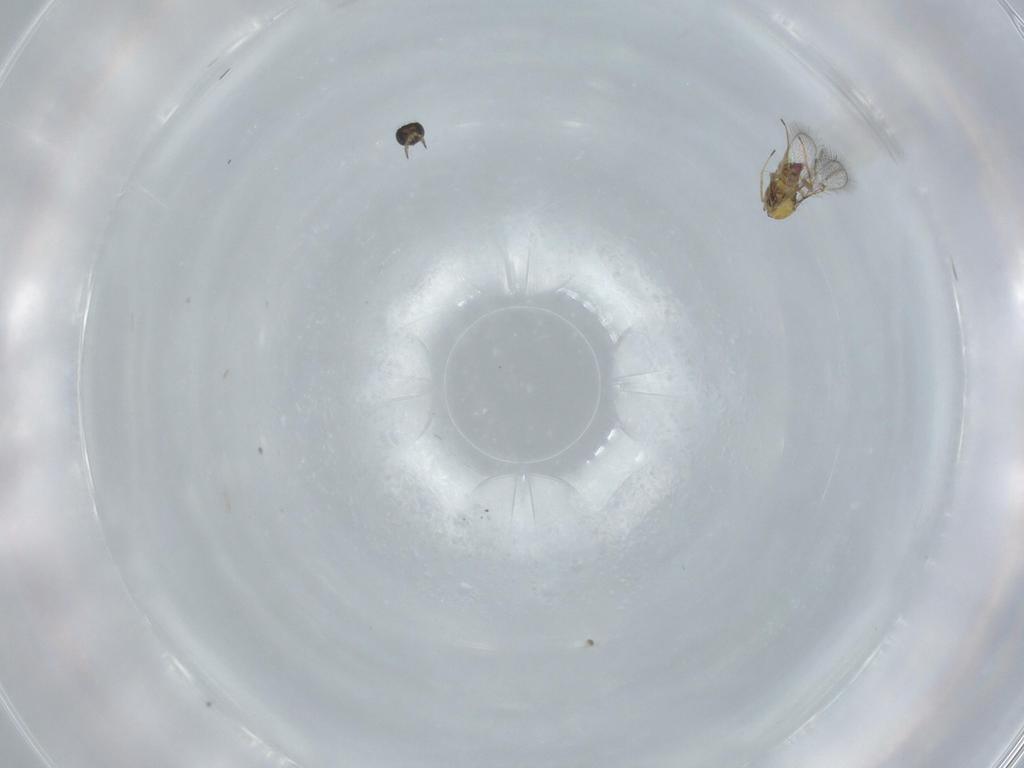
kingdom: Animalia
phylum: Arthropoda
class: Insecta
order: Hymenoptera
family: Trichogrammatidae
